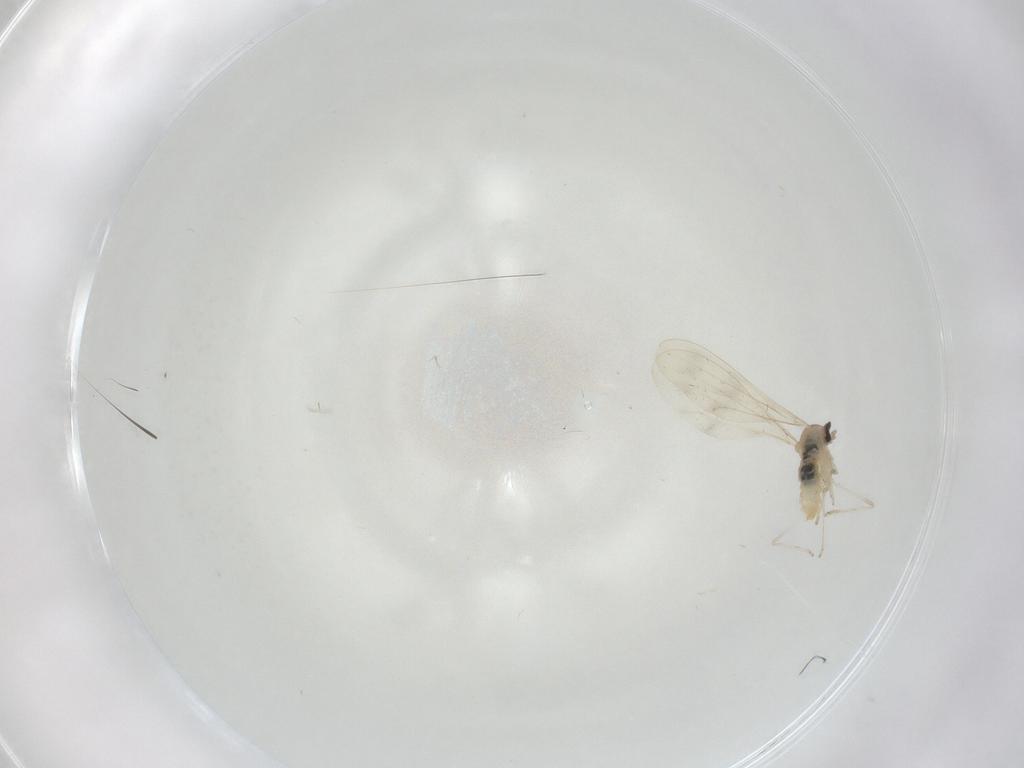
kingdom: Animalia
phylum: Arthropoda
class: Insecta
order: Diptera
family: Cecidomyiidae
